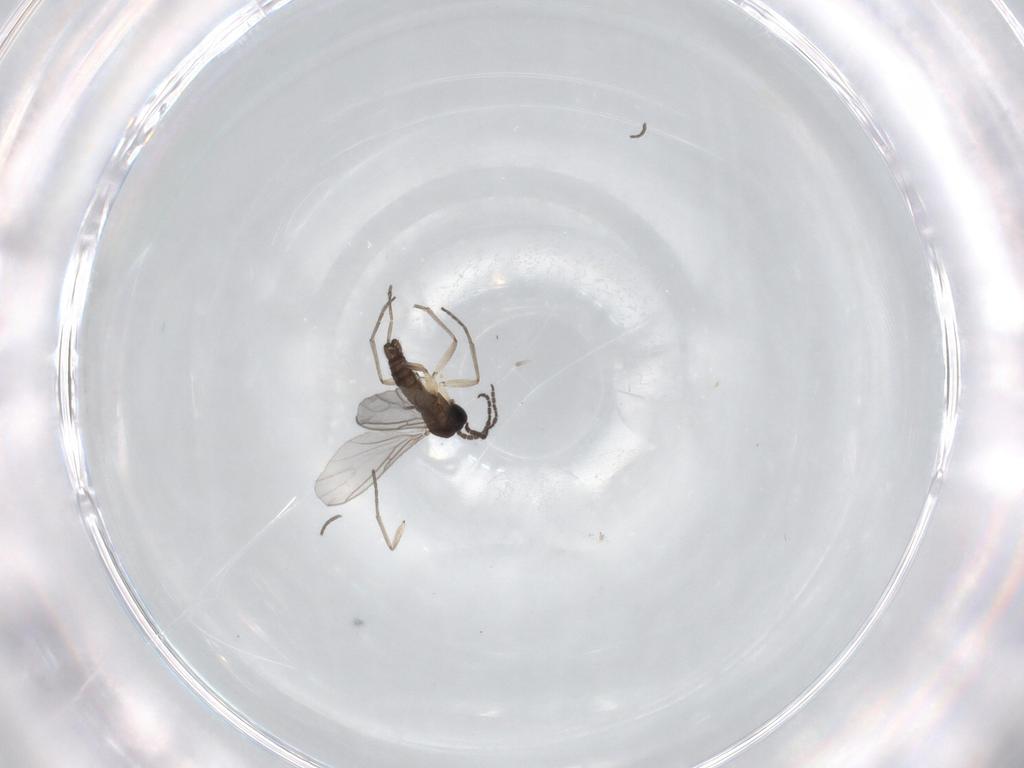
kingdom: Animalia
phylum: Arthropoda
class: Insecta
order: Diptera
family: Sciaridae
